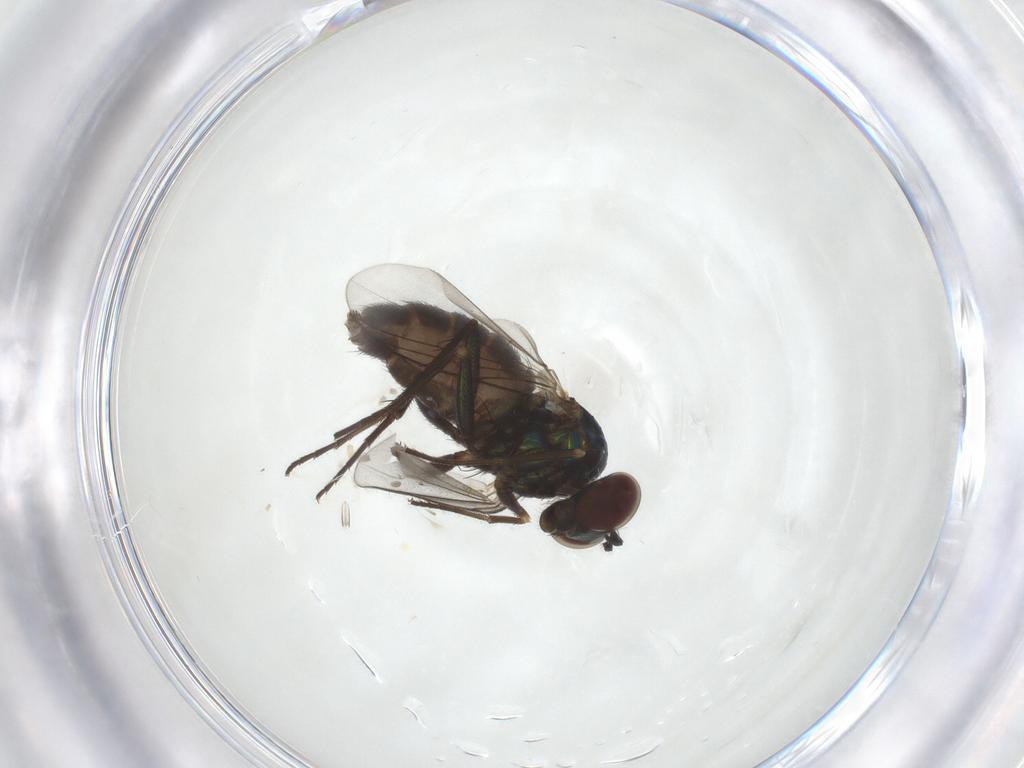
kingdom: Animalia
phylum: Arthropoda
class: Insecta
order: Diptera
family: Dolichopodidae
